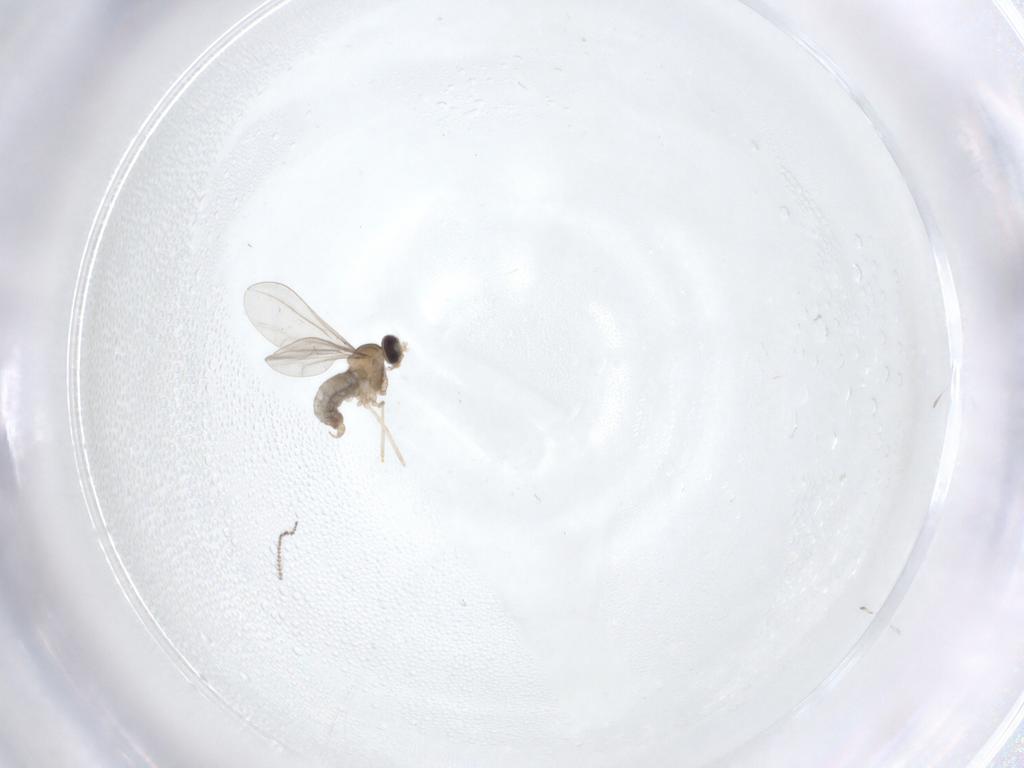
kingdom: Animalia
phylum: Arthropoda
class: Insecta
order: Diptera
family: Cecidomyiidae
